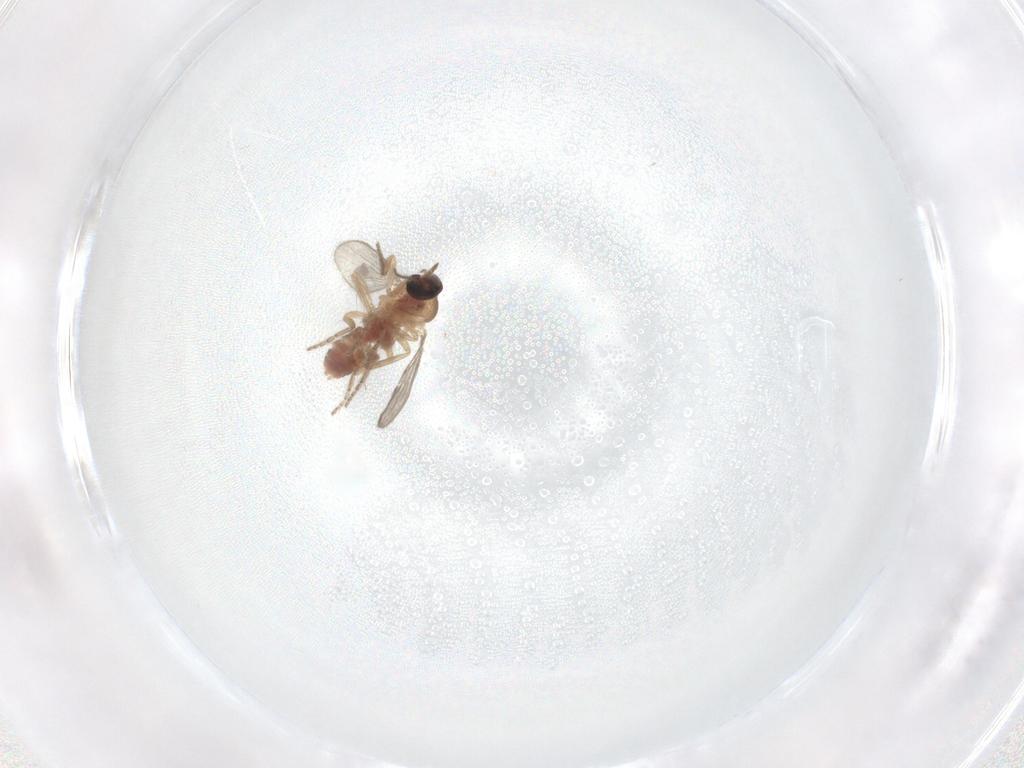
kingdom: Animalia
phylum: Arthropoda
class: Insecta
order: Diptera
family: Ceratopogonidae
